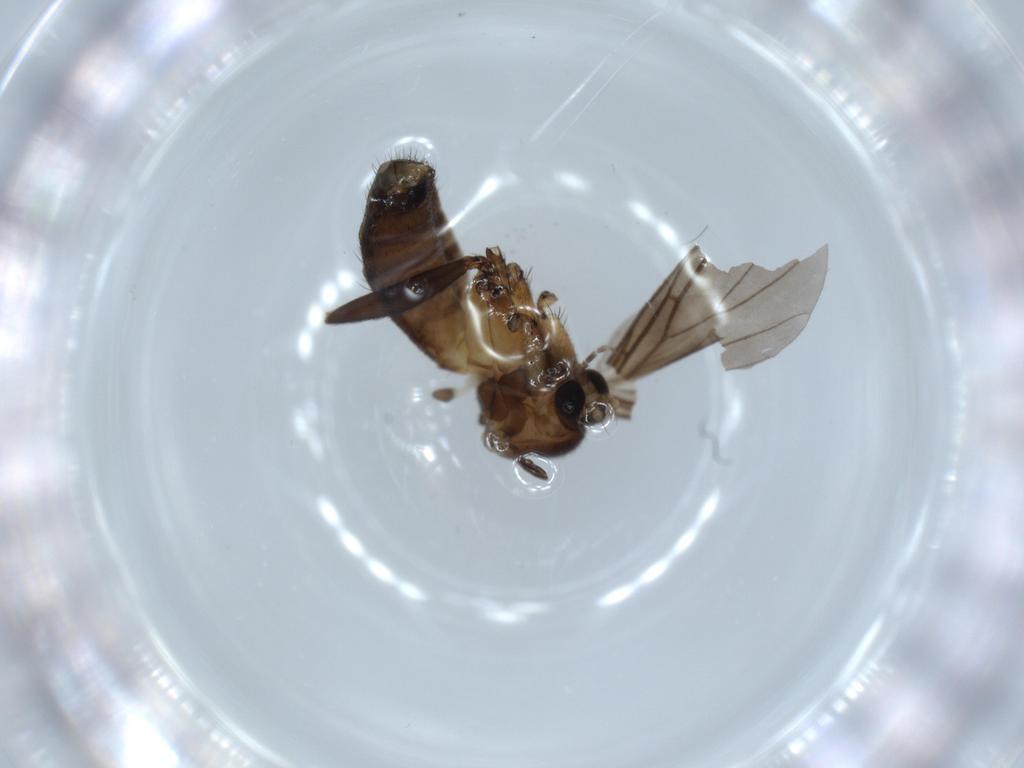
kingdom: Animalia
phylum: Arthropoda
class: Insecta
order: Diptera
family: Mycetophilidae
